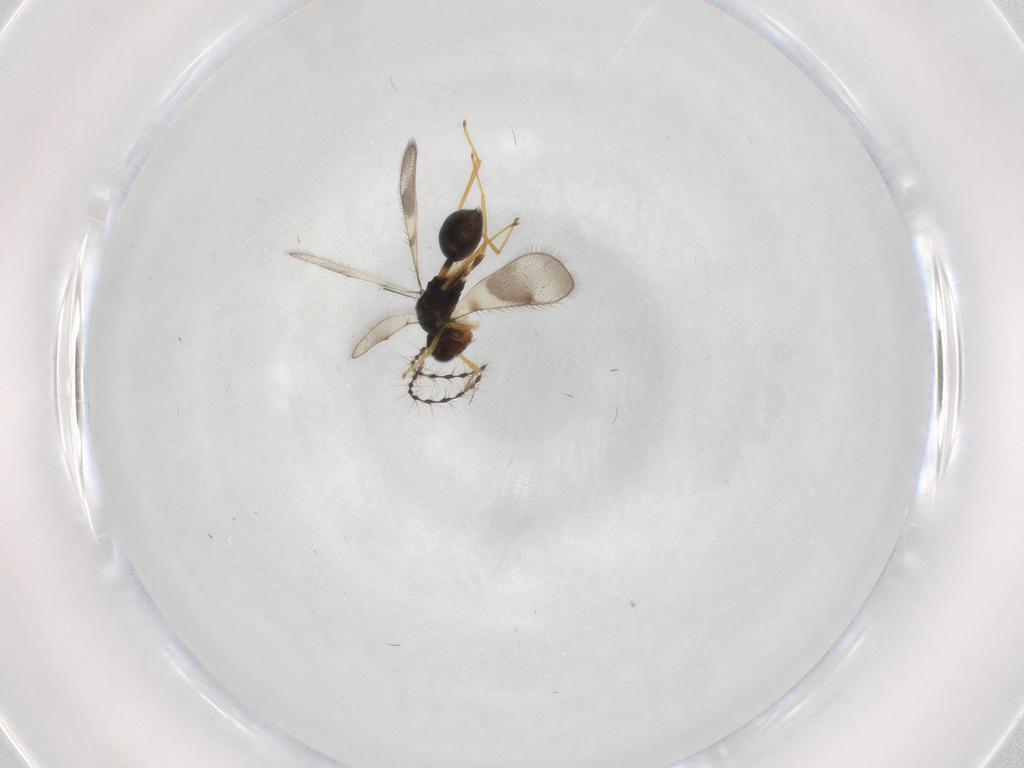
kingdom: Animalia
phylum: Arthropoda
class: Insecta
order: Hymenoptera
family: Diparidae
